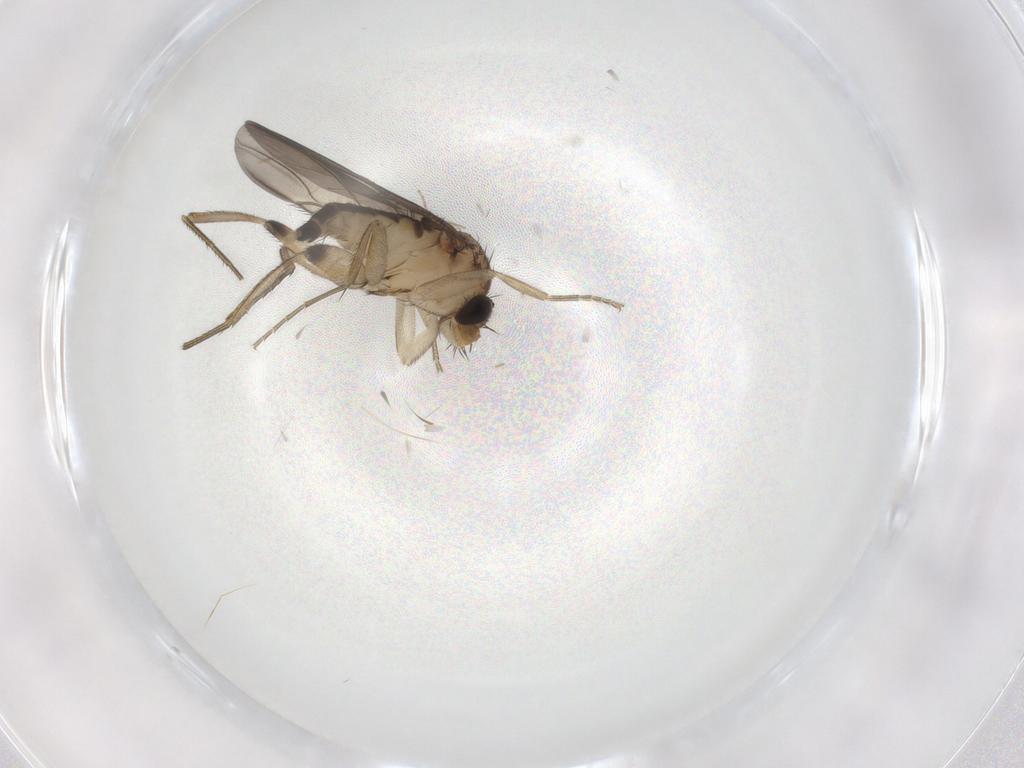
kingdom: Animalia
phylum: Arthropoda
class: Insecta
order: Diptera
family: Phoridae
